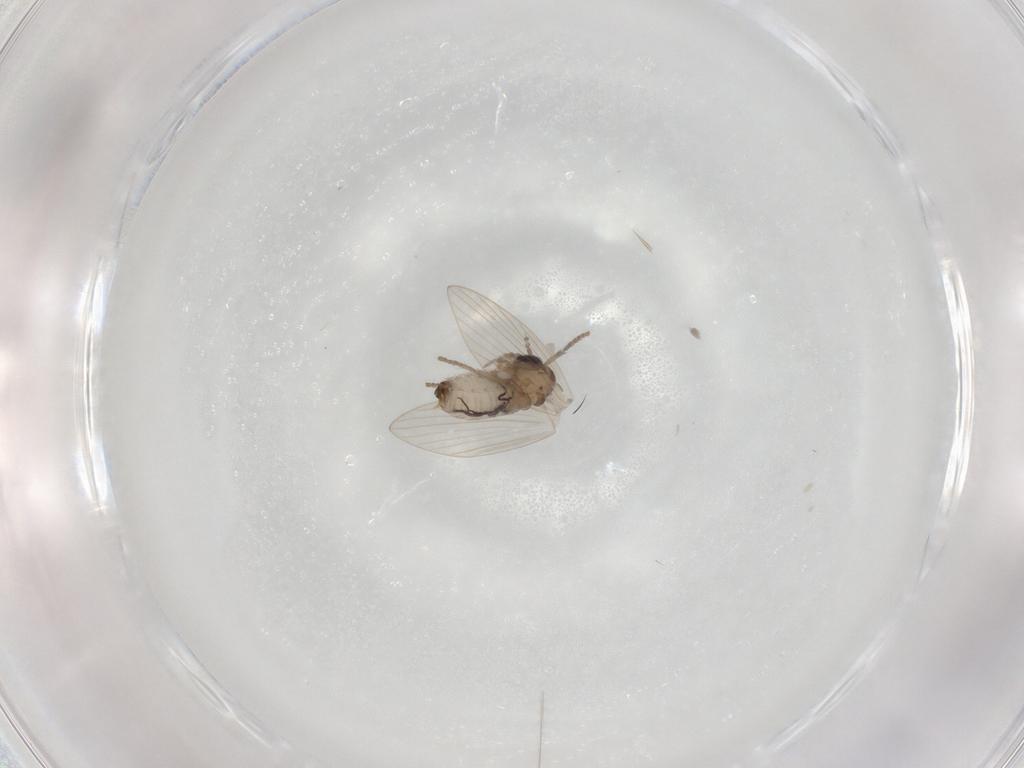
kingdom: Animalia
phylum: Arthropoda
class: Insecta
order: Diptera
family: Psychodidae
